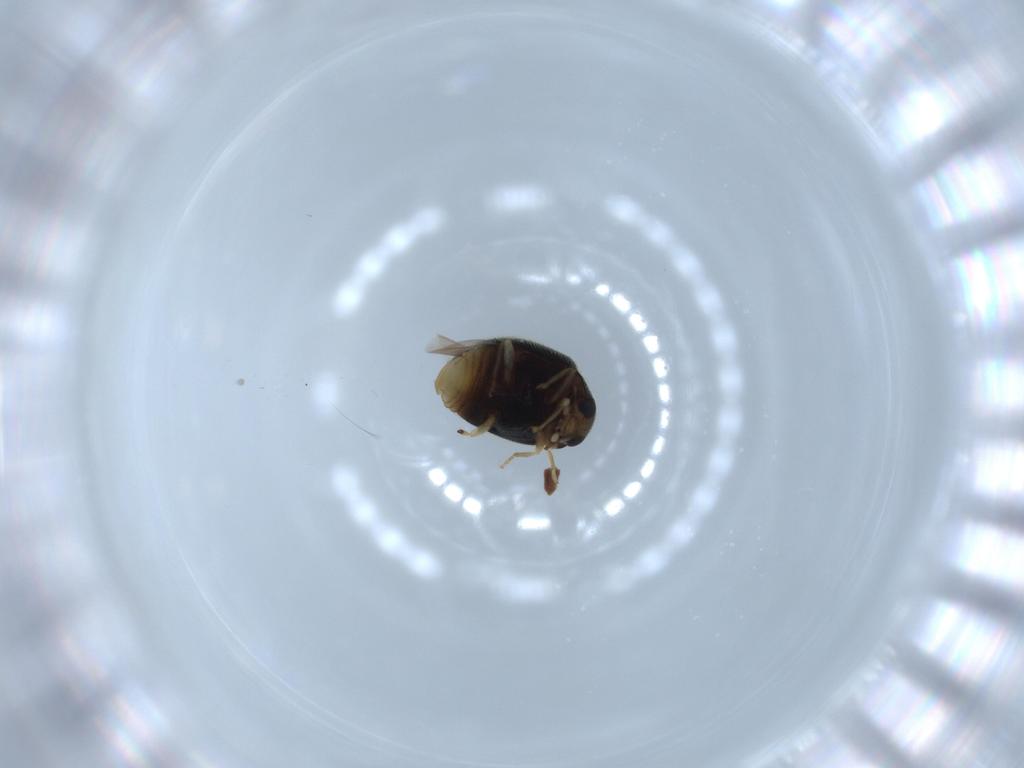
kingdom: Animalia
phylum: Arthropoda
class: Insecta
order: Coleoptera
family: Coccinellidae
